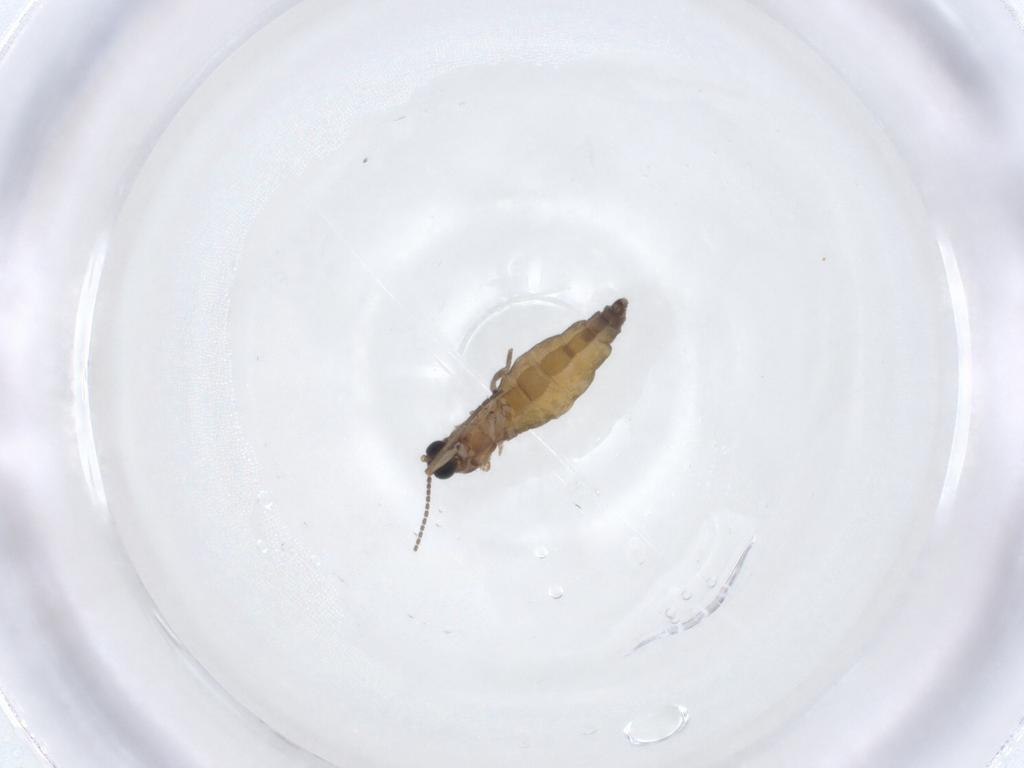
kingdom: Animalia
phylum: Arthropoda
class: Insecta
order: Diptera
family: Sciaridae
